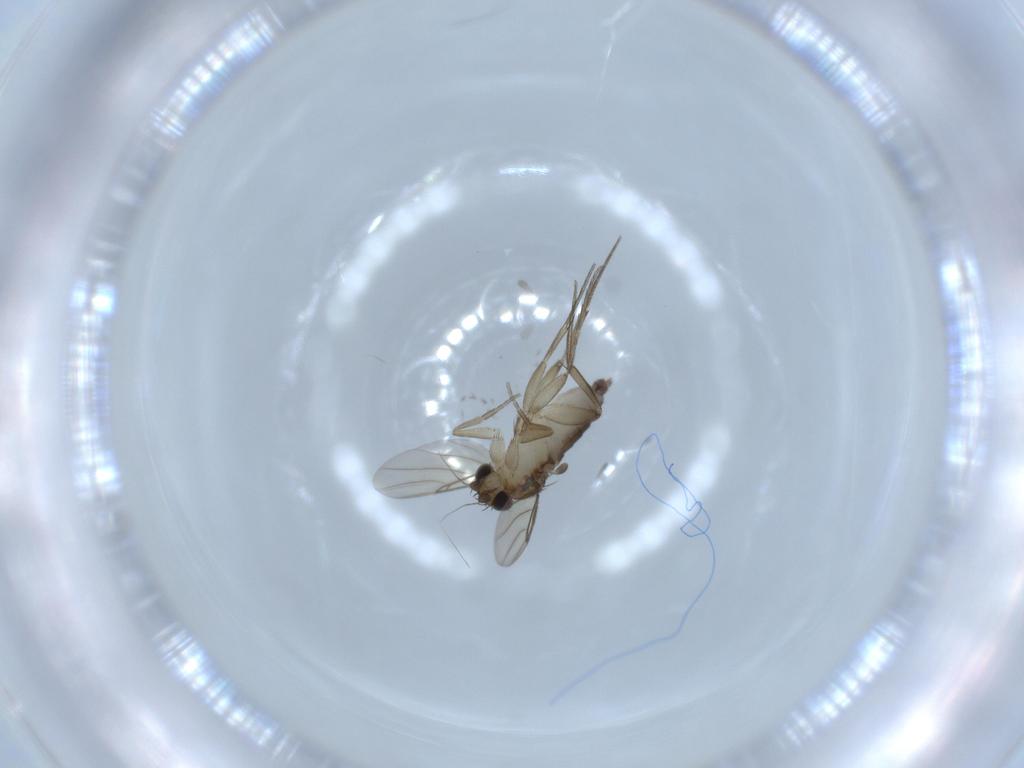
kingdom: Animalia
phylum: Arthropoda
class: Insecta
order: Diptera
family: Phoridae
